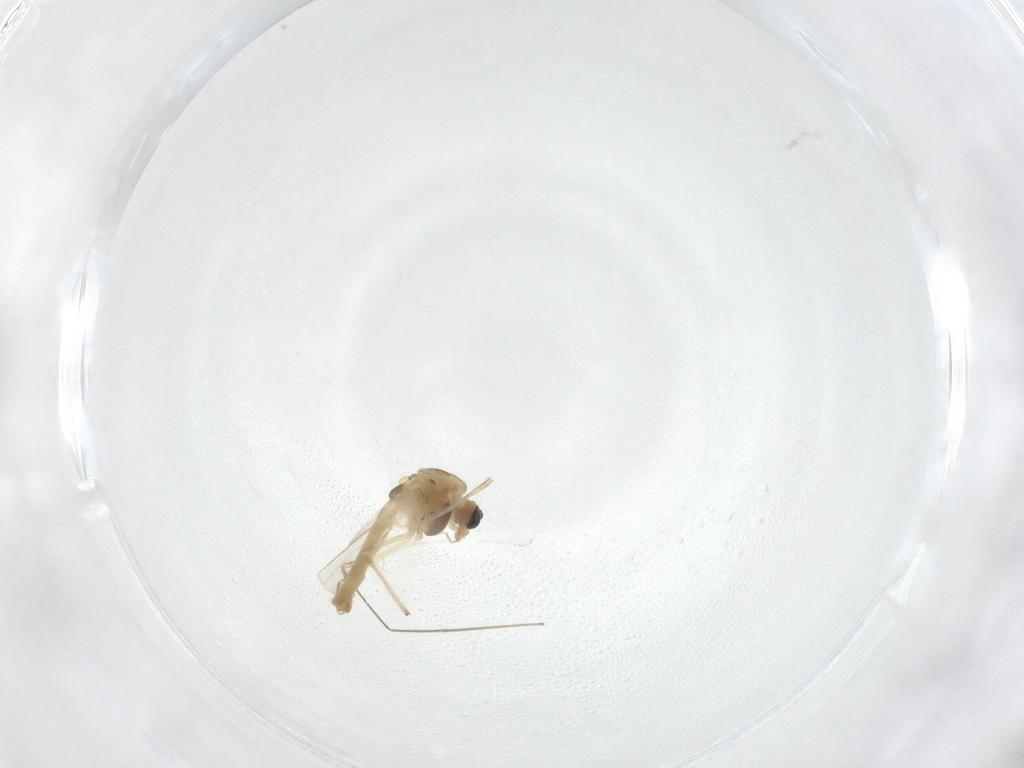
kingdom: Animalia
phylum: Arthropoda
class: Insecta
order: Diptera
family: Chironomidae
